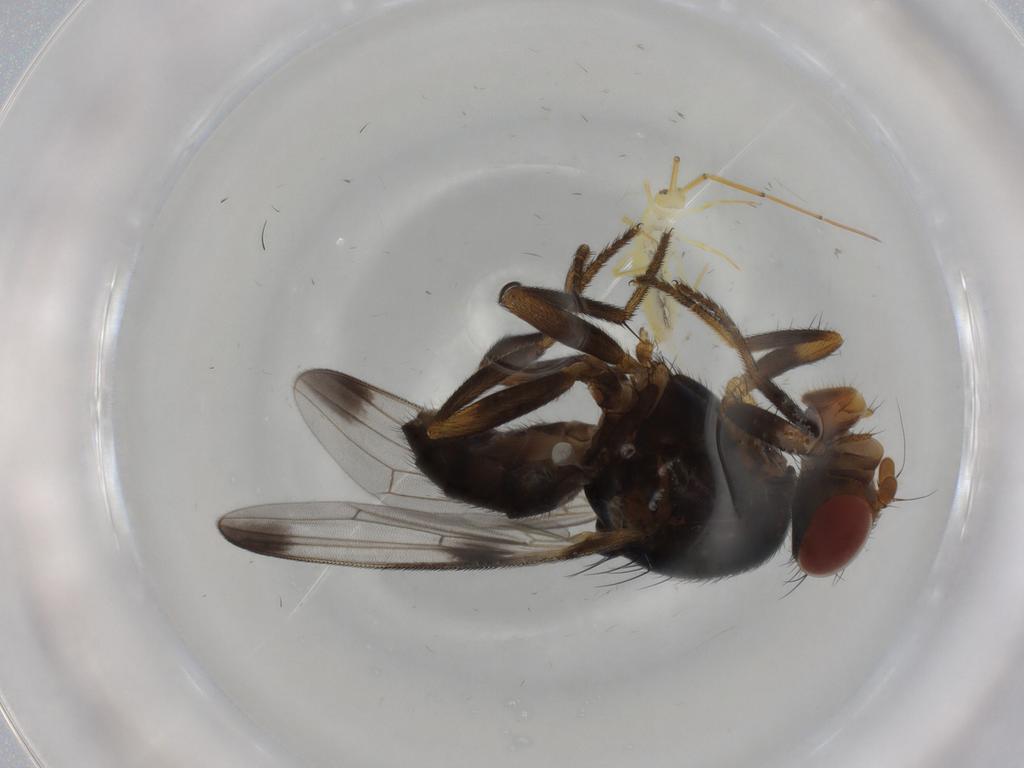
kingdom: Animalia
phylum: Arthropoda
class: Insecta
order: Diptera
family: Ulidiidae
